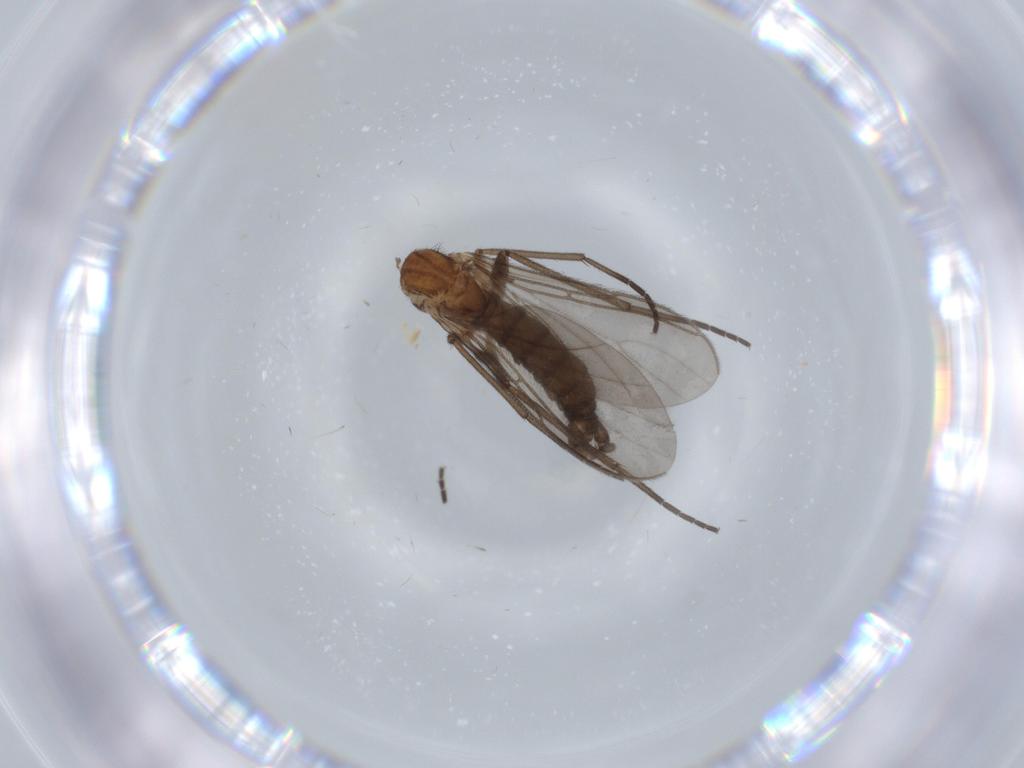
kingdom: Animalia
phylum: Arthropoda
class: Insecta
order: Diptera
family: Sciaridae
